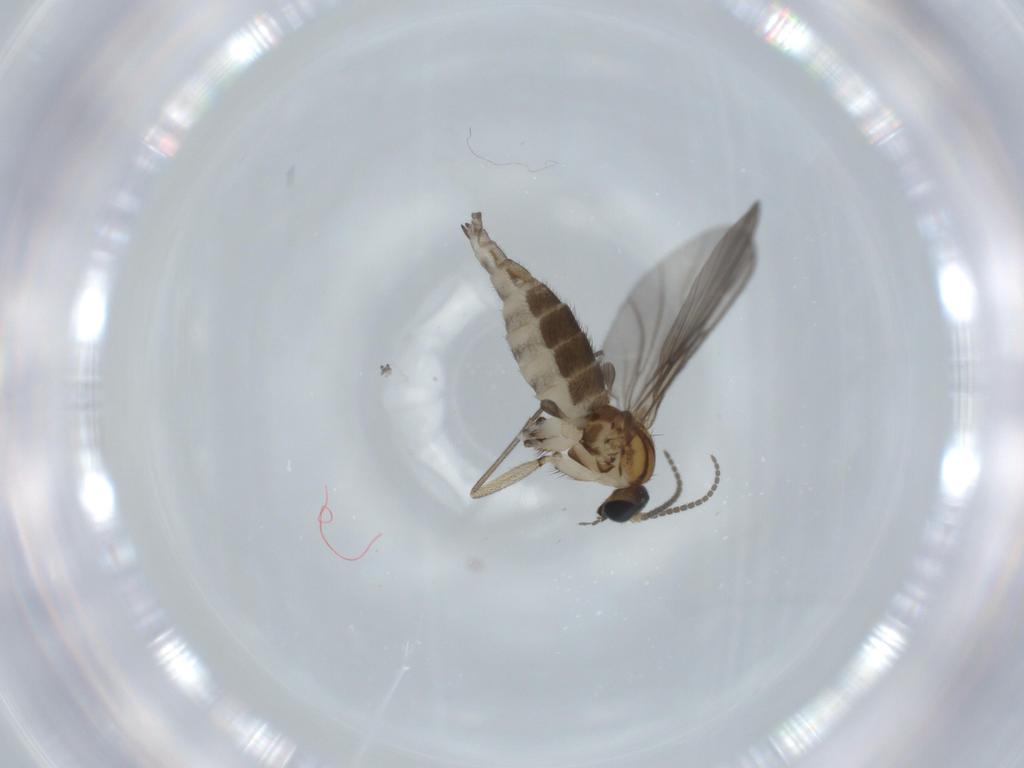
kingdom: Animalia
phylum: Arthropoda
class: Insecta
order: Diptera
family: Sciaridae
